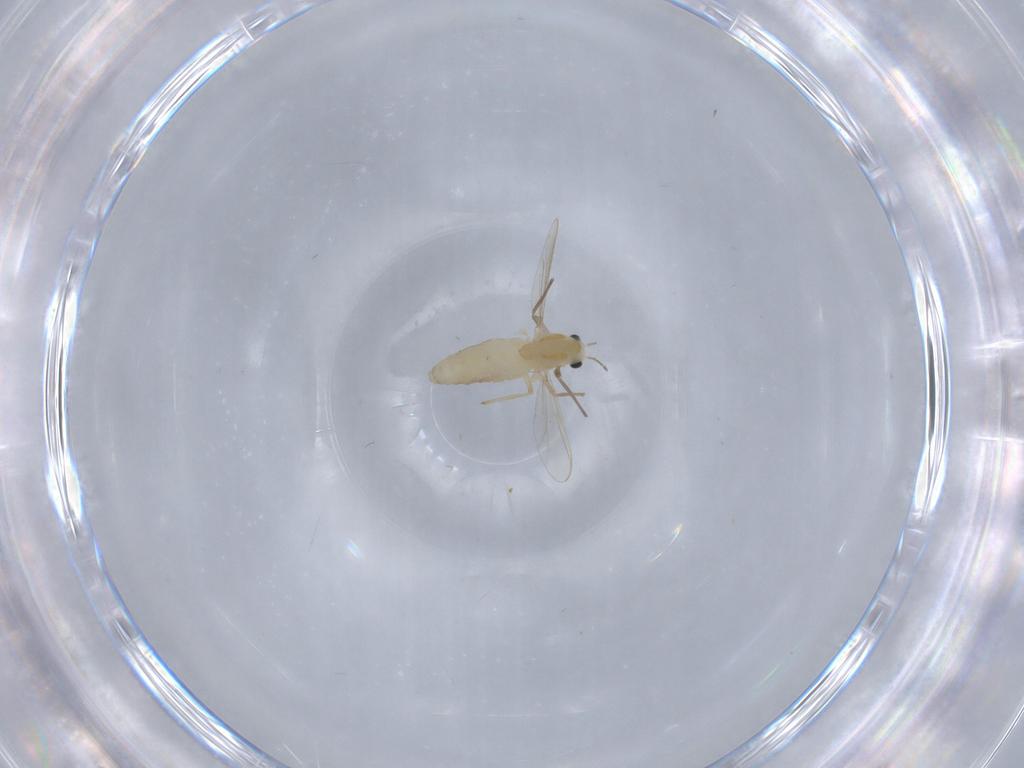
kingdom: Animalia
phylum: Arthropoda
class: Insecta
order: Diptera
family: Chironomidae
